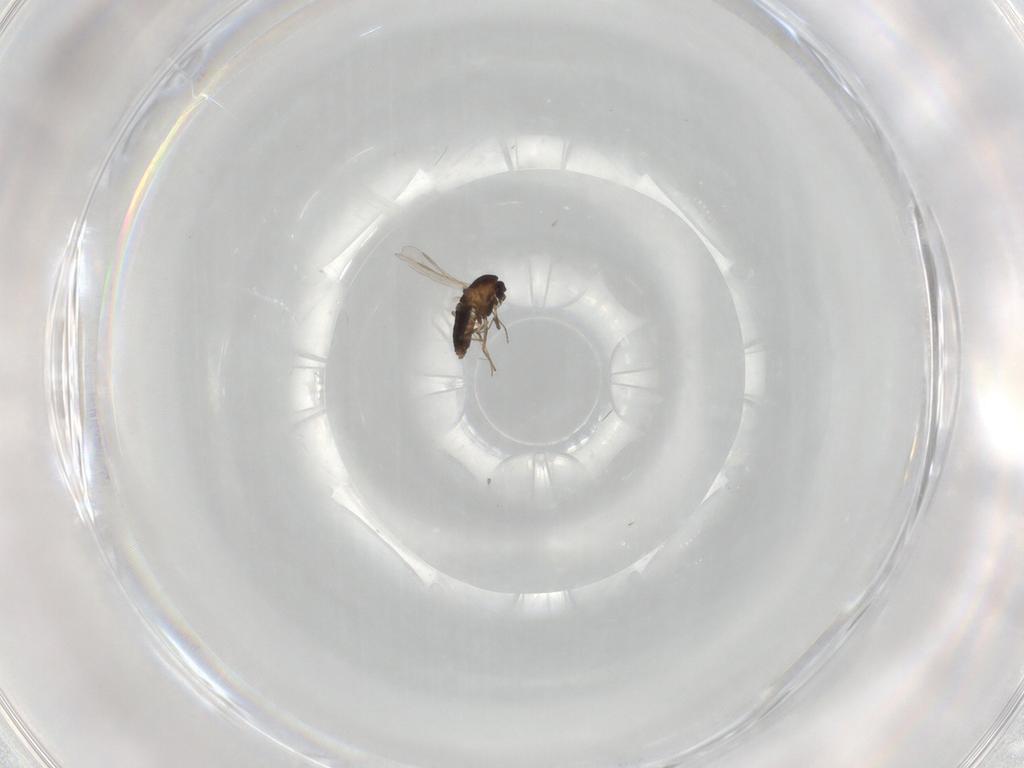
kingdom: Animalia
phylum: Arthropoda
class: Insecta
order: Diptera
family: Chironomidae
